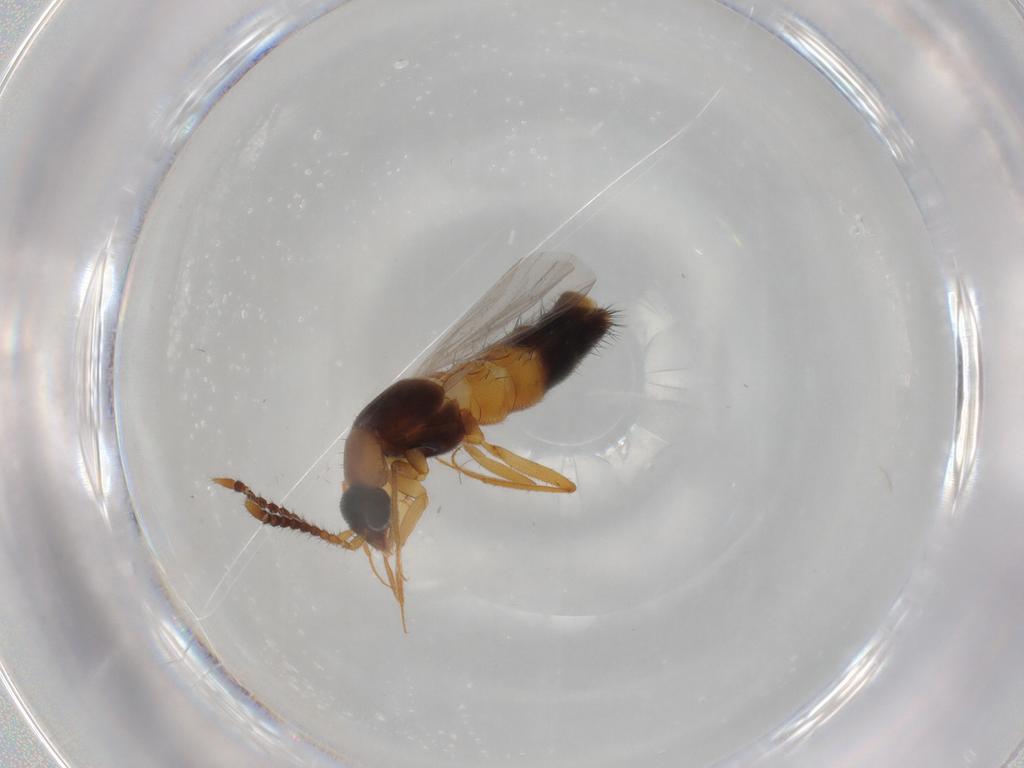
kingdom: Animalia
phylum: Arthropoda
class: Insecta
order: Coleoptera
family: Staphylinidae
